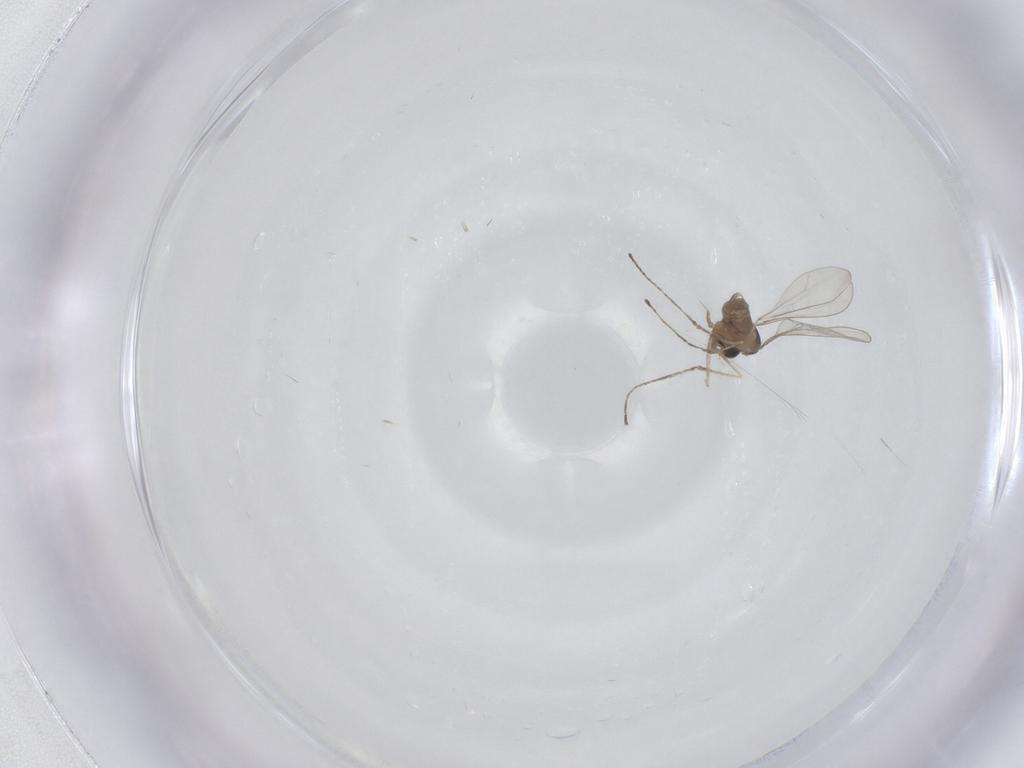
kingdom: Animalia
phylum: Arthropoda
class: Insecta
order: Diptera
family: Cecidomyiidae
